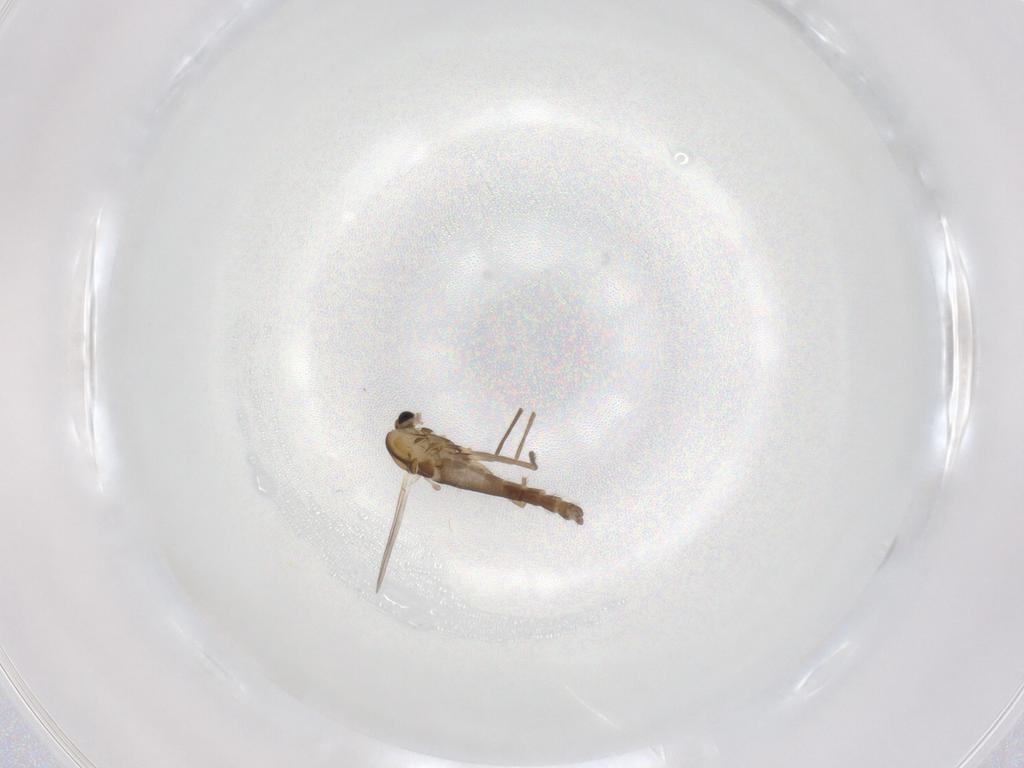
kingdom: Animalia
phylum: Arthropoda
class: Insecta
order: Diptera
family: Chironomidae
